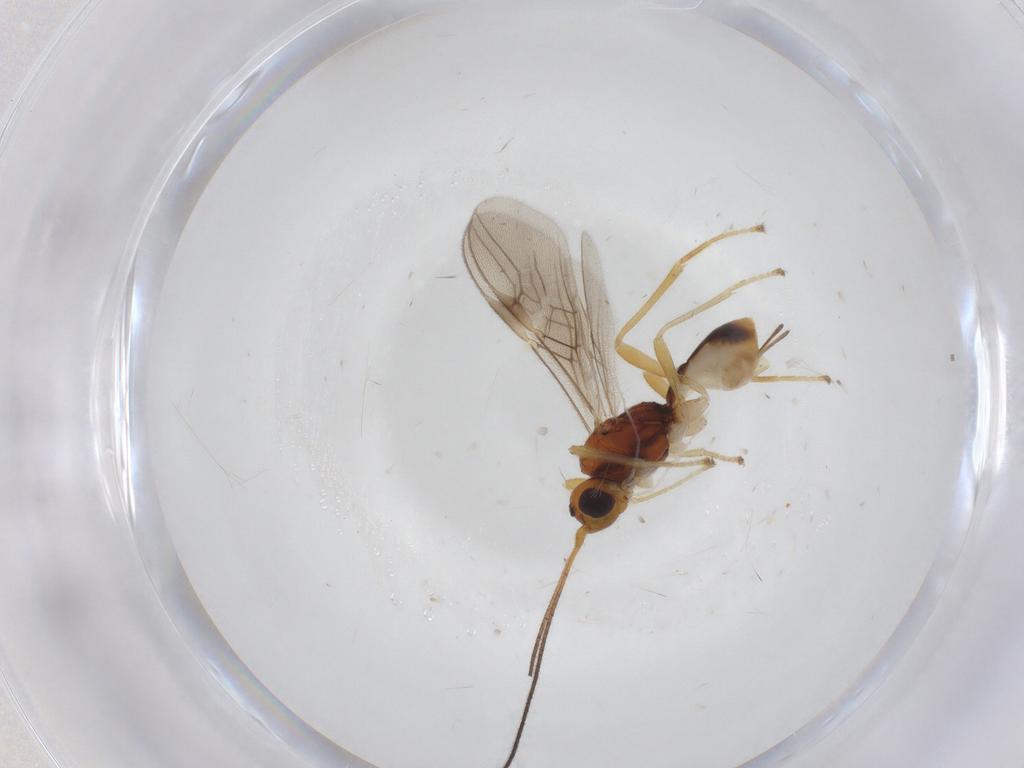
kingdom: Animalia
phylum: Arthropoda
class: Insecta
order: Hymenoptera
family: Braconidae
